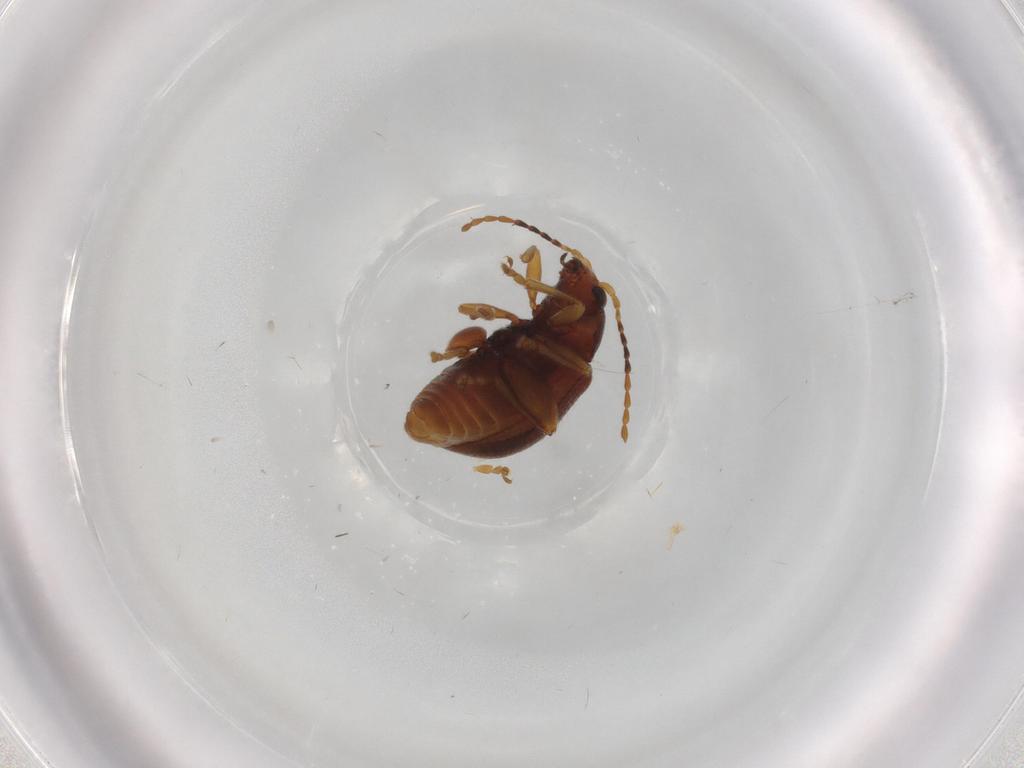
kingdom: Animalia
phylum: Arthropoda
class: Insecta
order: Coleoptera
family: Chrysomelidae
